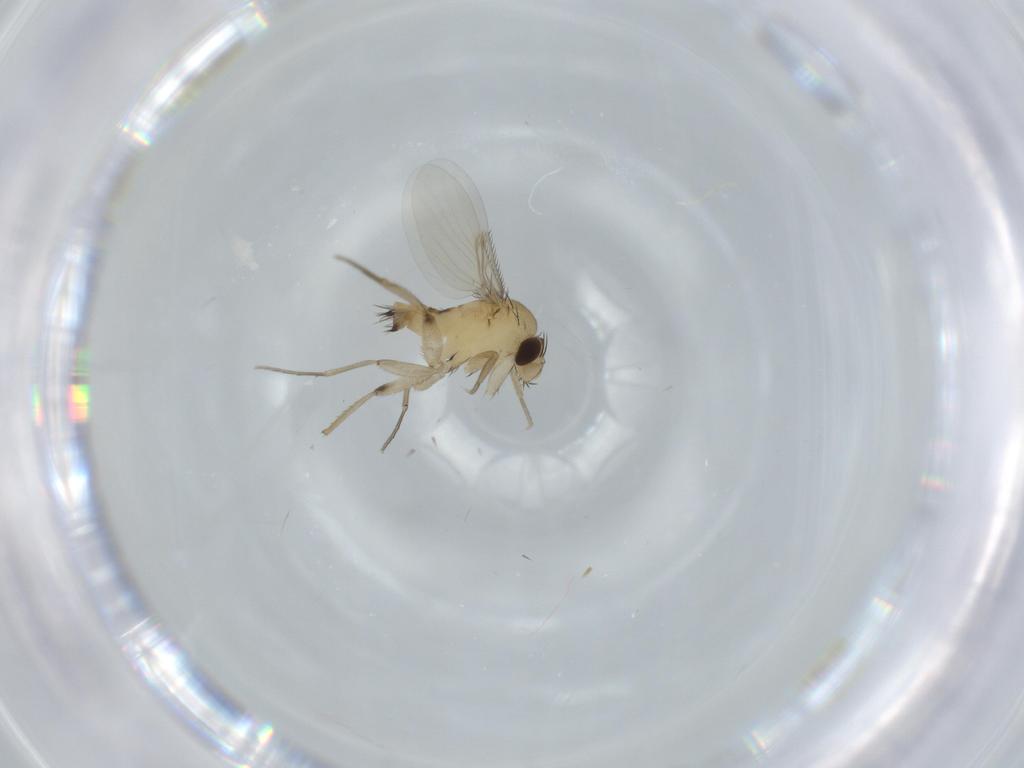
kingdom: Animalia
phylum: Arthropoda
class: Insecta
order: Diptera
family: Phoridae
